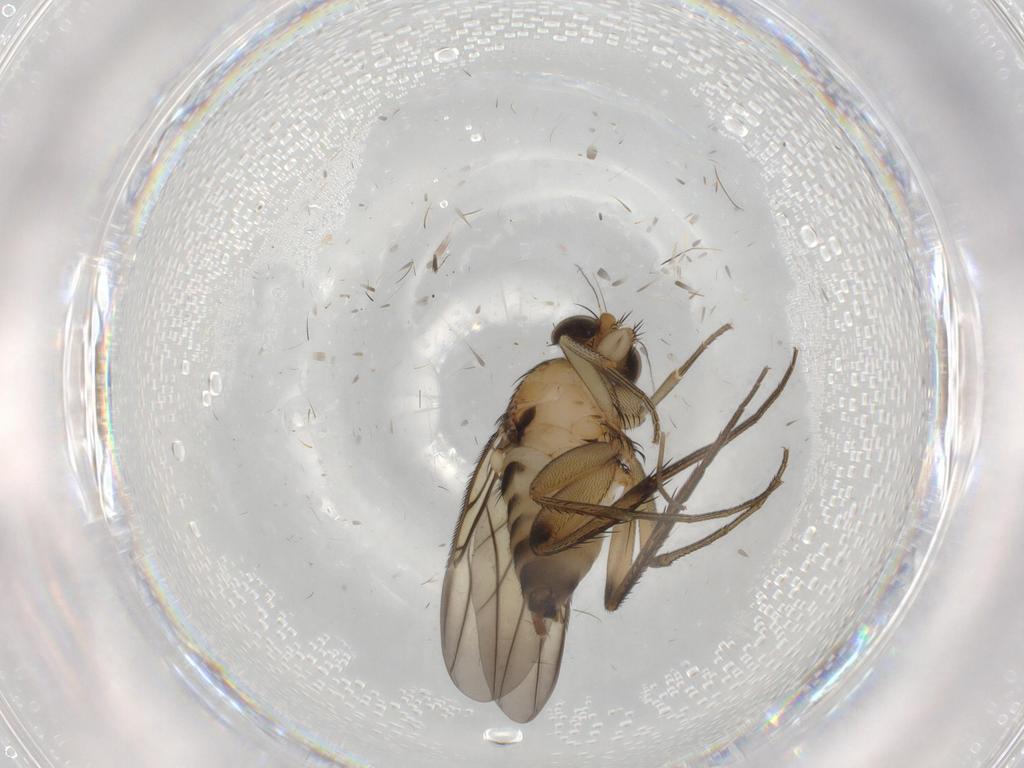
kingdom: Animalia
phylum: Arthropoda
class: Insecta
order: Diptera
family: Phoridae
